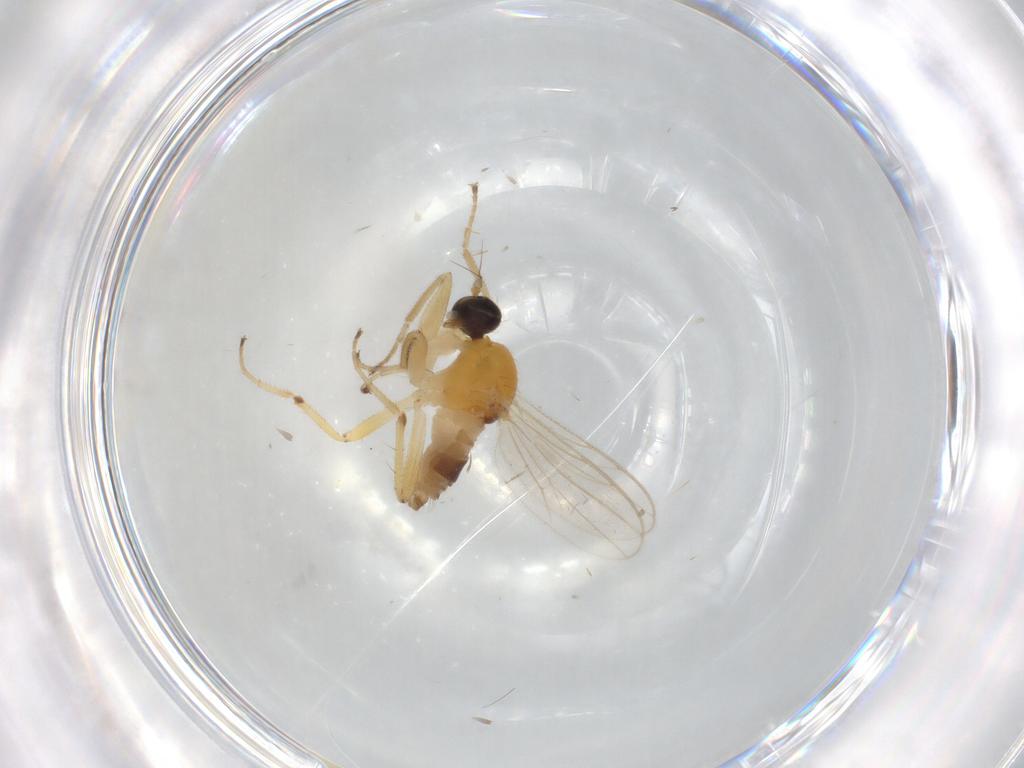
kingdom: Animalia
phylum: Arthropoda
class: Insecta
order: Diptera
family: Hybotidae
